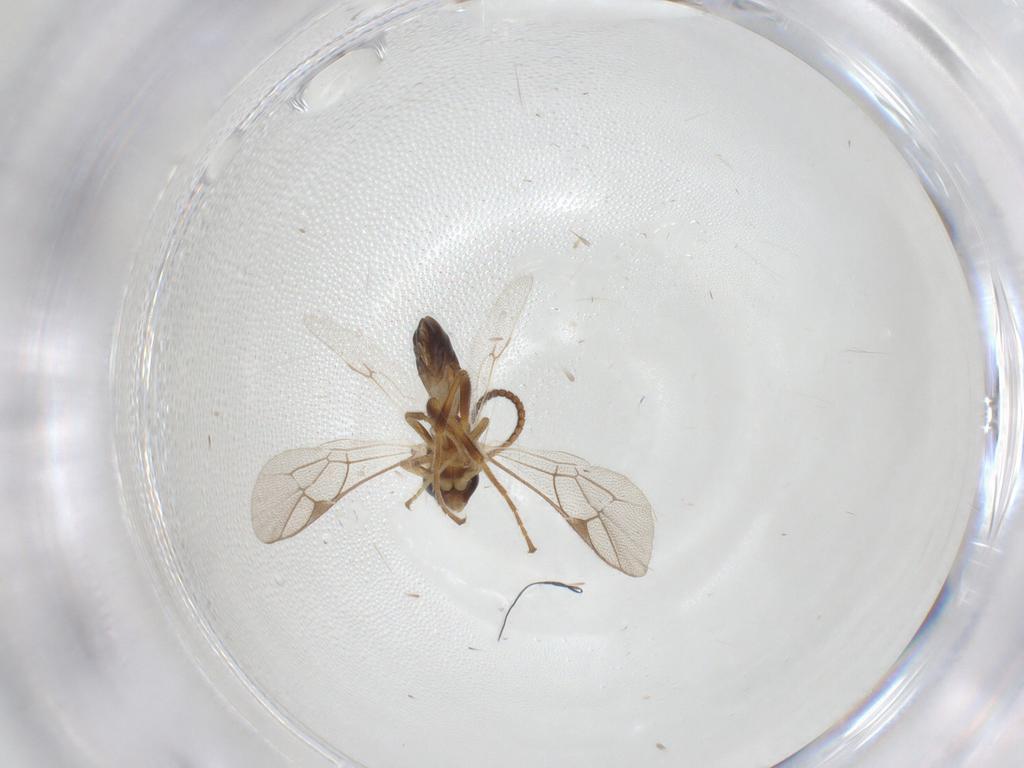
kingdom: Animalia
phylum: Arthropoda
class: Insecta
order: Hymenoptera
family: Ichneumonidae
